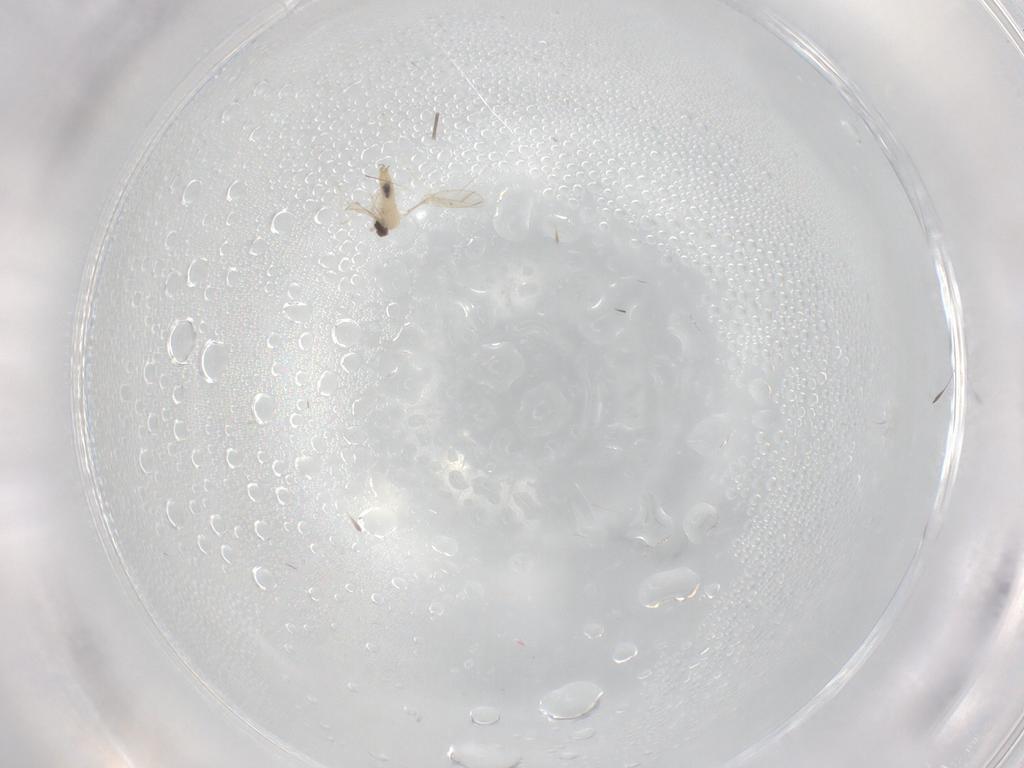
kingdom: Animalia
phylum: Arthropoda
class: Insecta
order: Diptera
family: Cecidomyiidae
